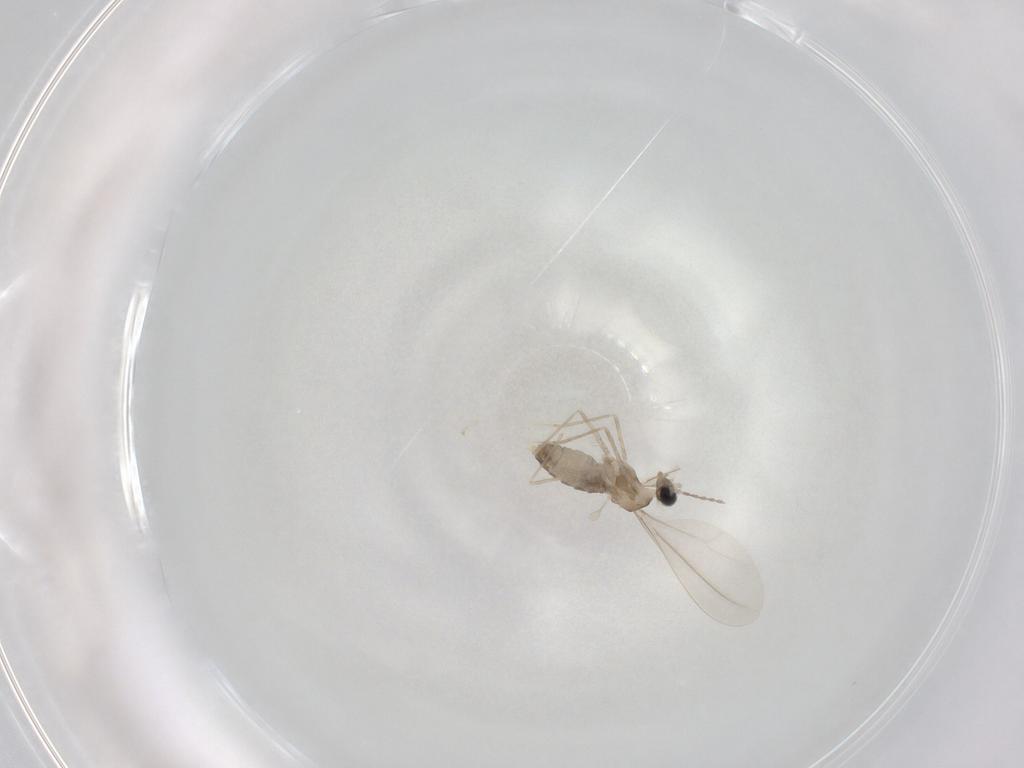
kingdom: Animalia
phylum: Arthropoda
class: Insecta
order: Diptera
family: Cecidomyiidae
